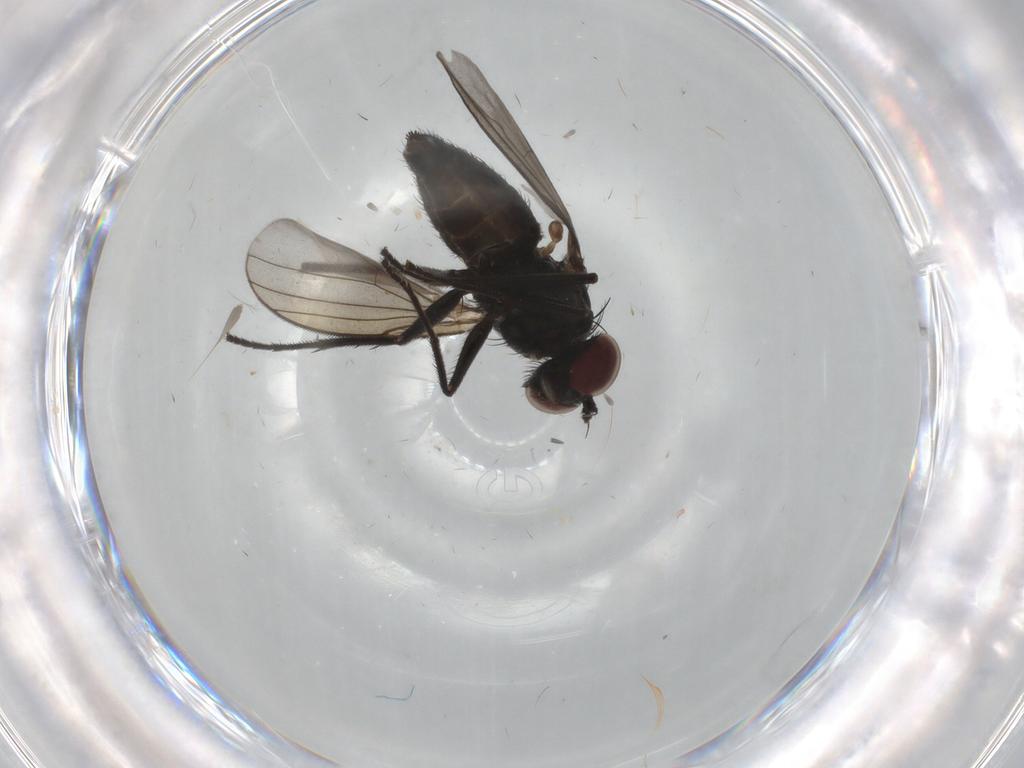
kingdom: Animalia
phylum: Arthropoda
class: Insecta
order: Diptera
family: Dolichopodidae
